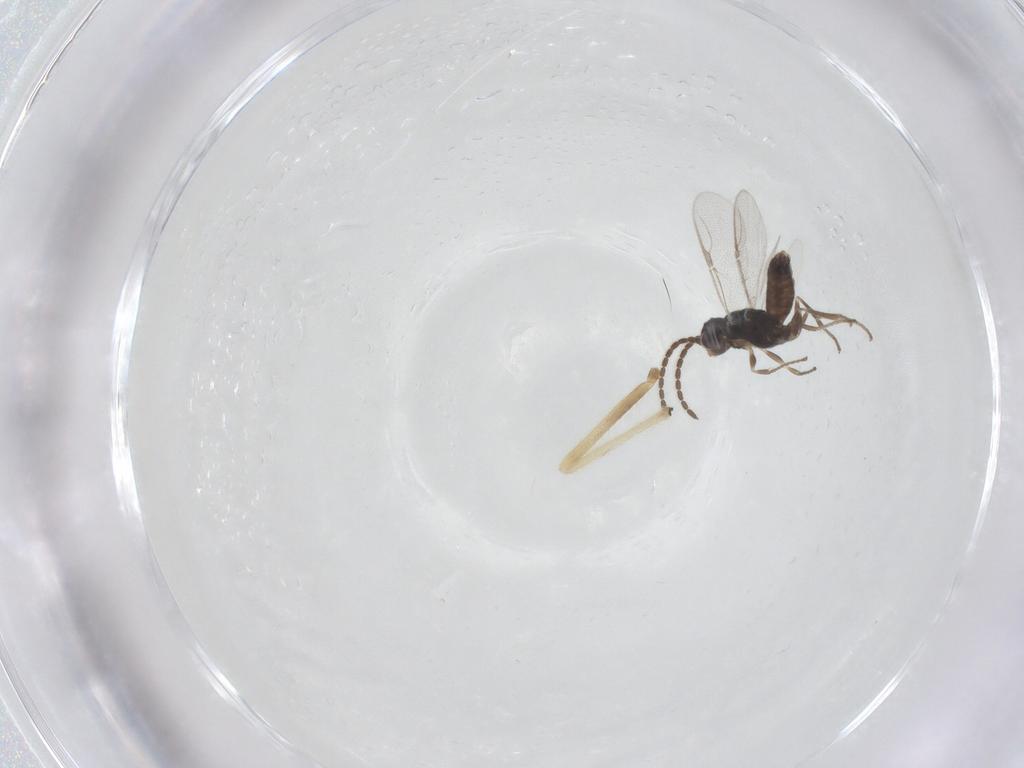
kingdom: Animalia
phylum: Arthropoda
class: Insecta
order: Hymenoptera
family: Dryinidae
